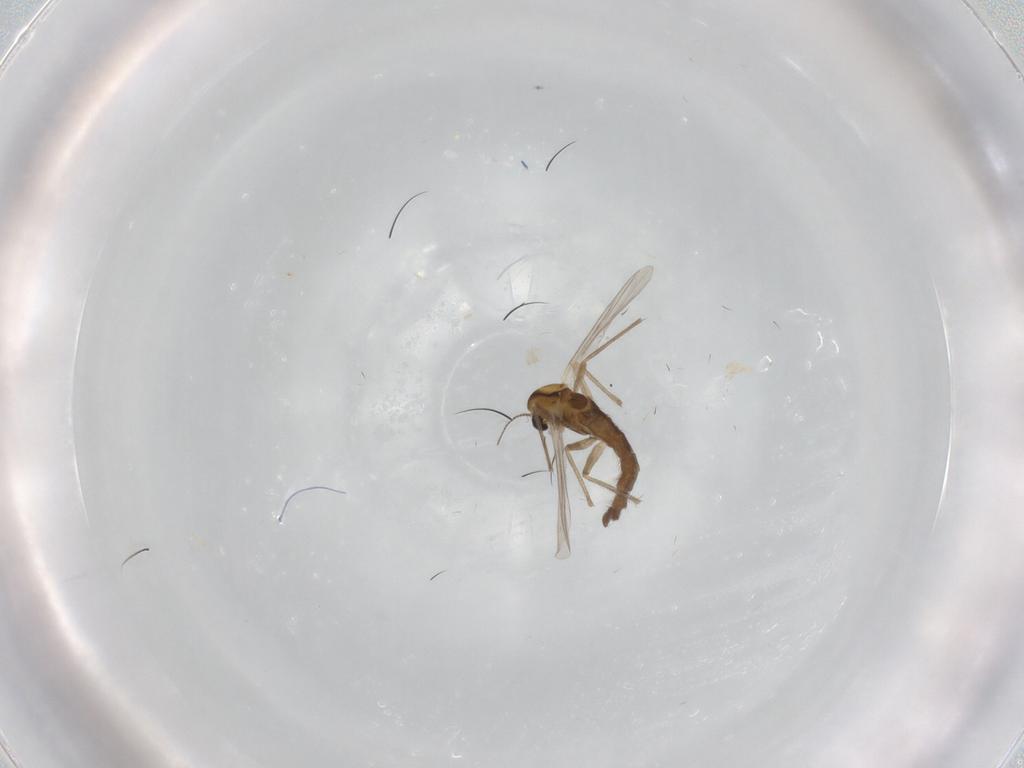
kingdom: Animalia
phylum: Arthropoda
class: Insecta
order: Diptera
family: Chironomidae
